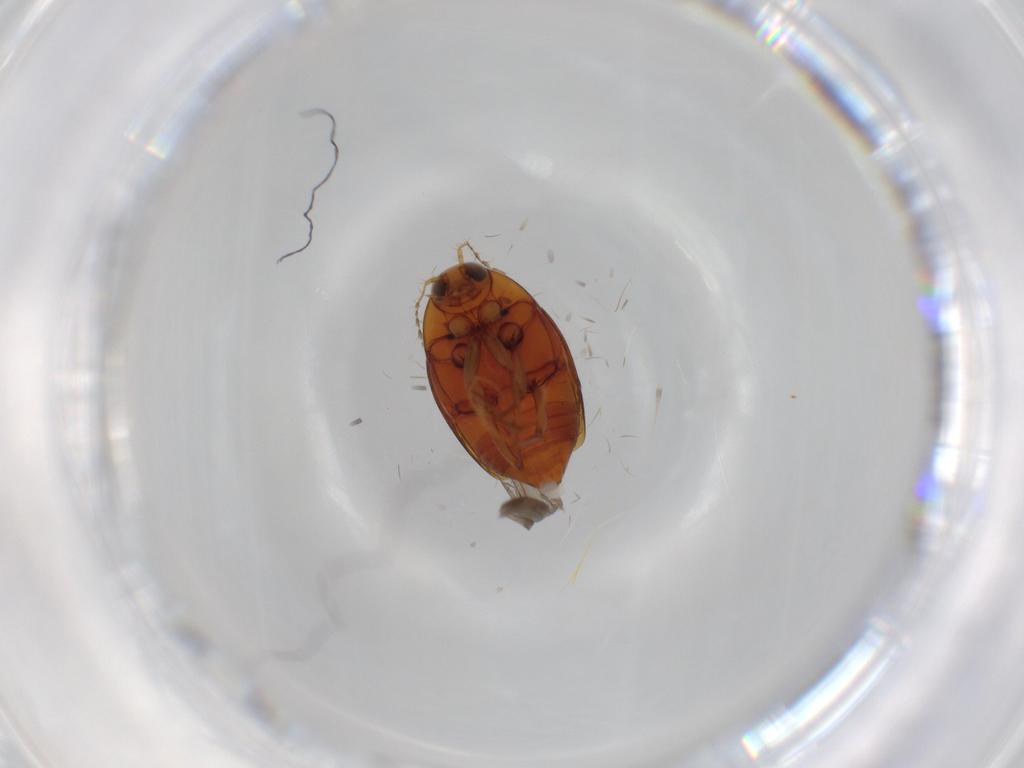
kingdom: Animalia
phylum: Arthropoda
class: Insecta
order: Coleoptera
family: Staphylinidae
